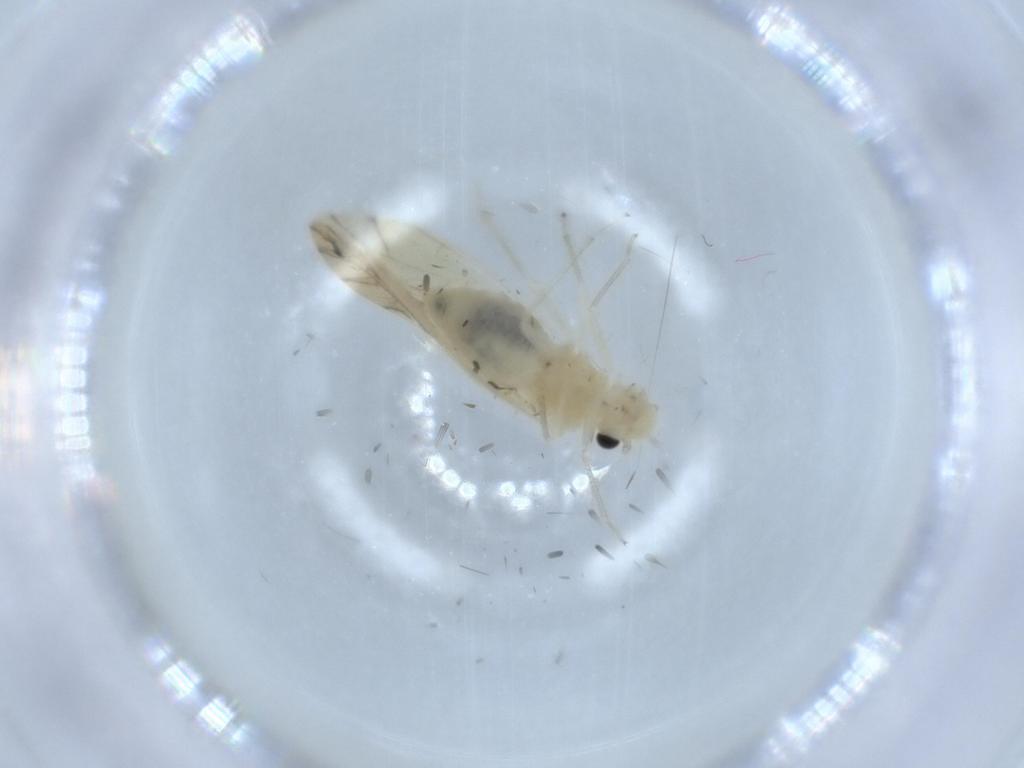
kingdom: Animalia
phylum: Arthropoda
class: Insecta
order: Psocodea
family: Caeciliusidae
